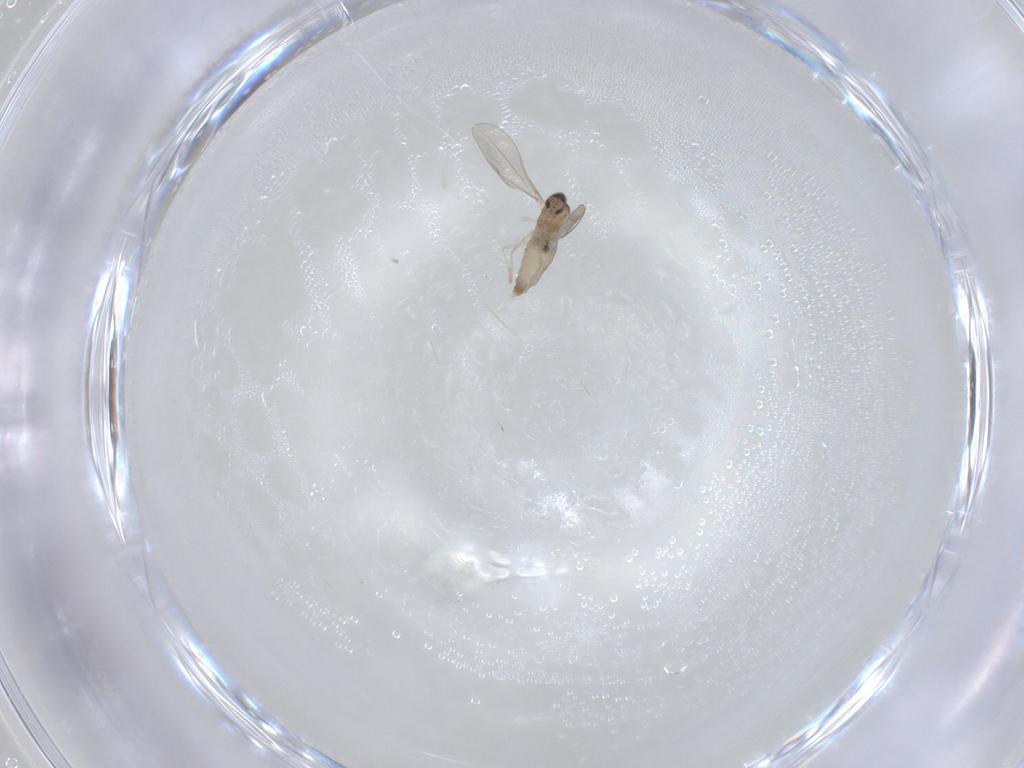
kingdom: Animalia
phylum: Arthropoda
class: Insecta
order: Diptera
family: Cecidomyiidae
